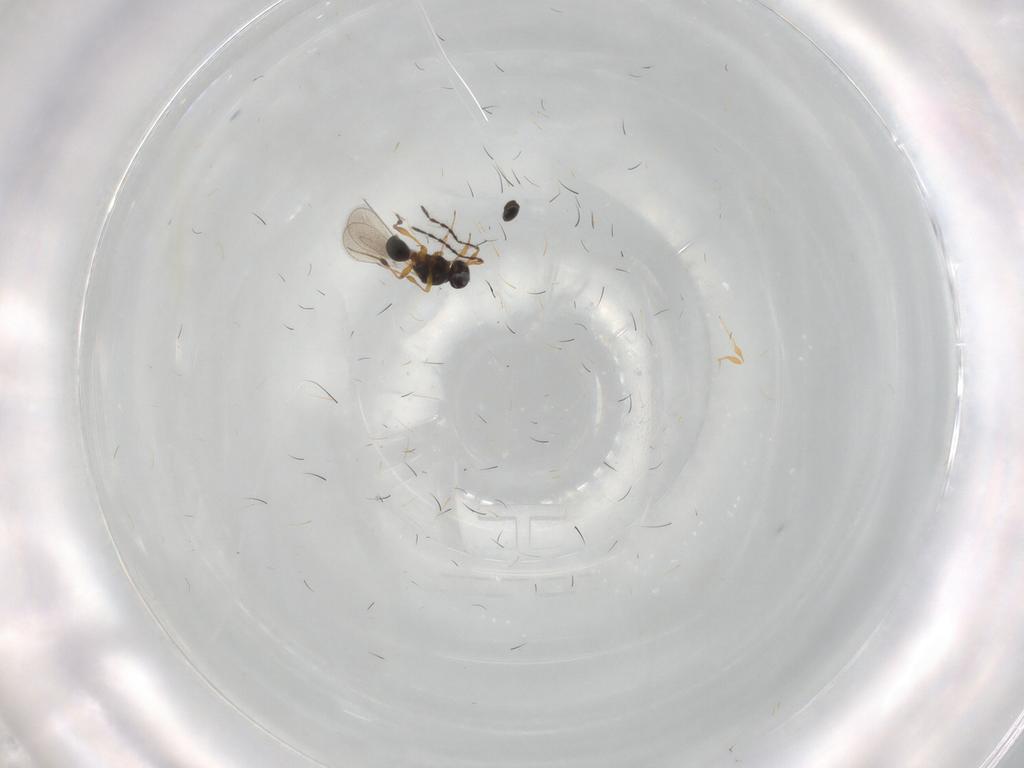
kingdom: Animalia
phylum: Arthropoda
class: Insecta
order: Hymenoptera
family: Platygastridae
